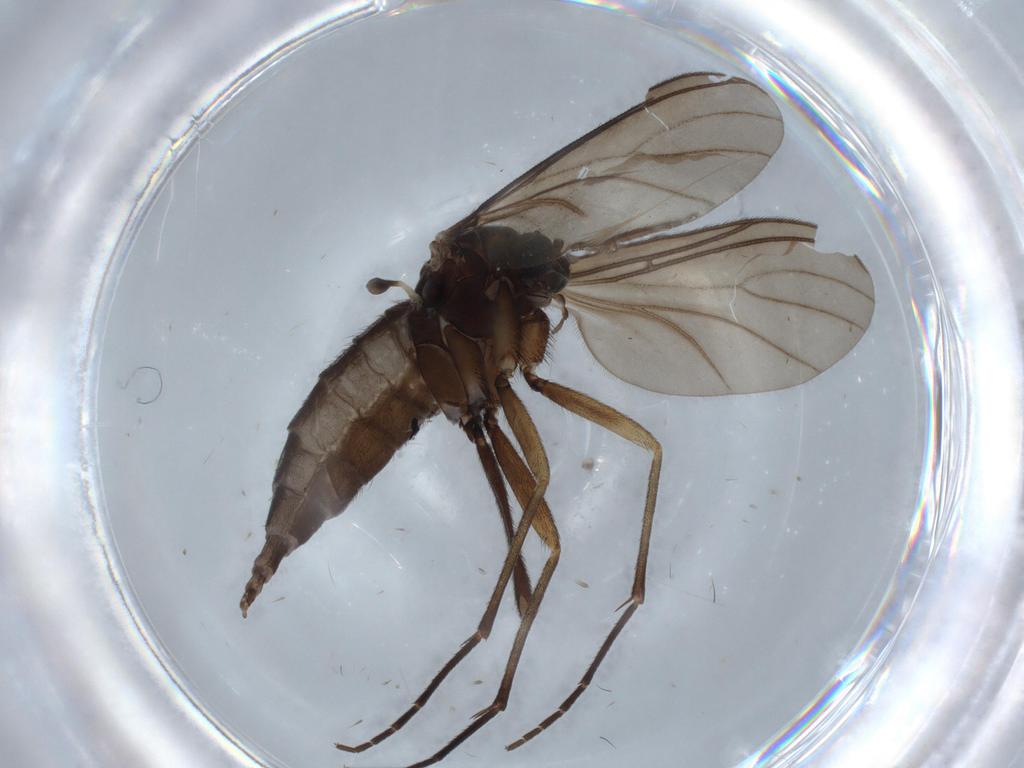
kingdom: Animalia
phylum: Arthropoda
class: Insecta
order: Diptera
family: Sciaridae
